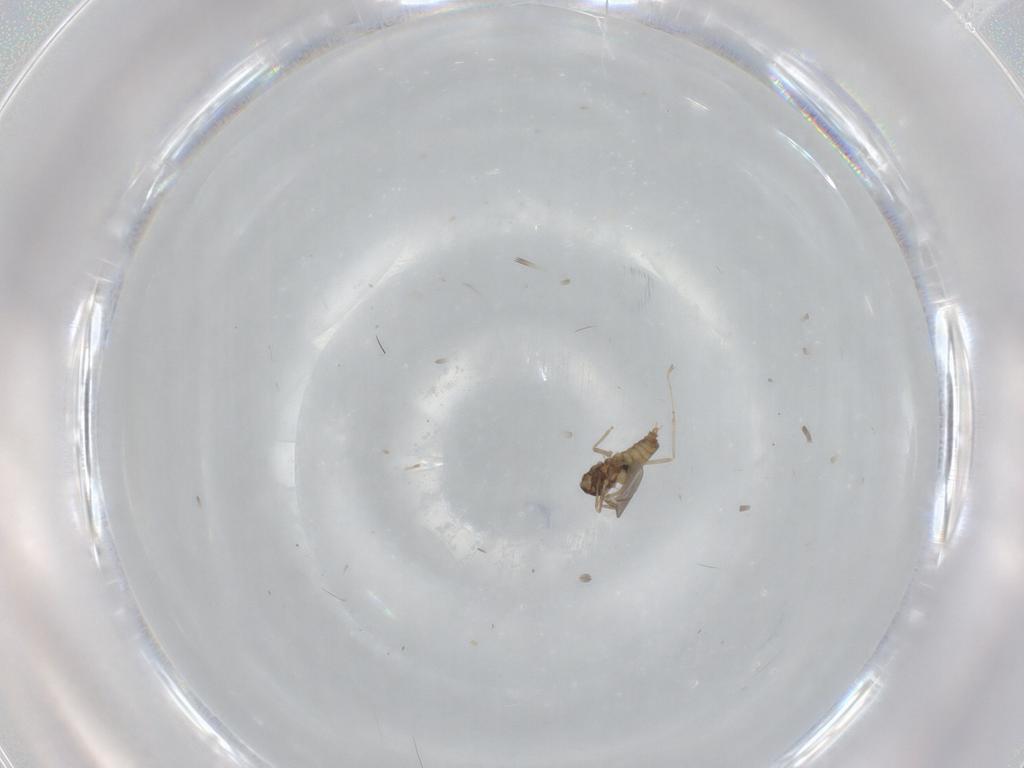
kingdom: Animalia
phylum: Arthropoda
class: Insecta
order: Diptera
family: Cecidomyiidae
